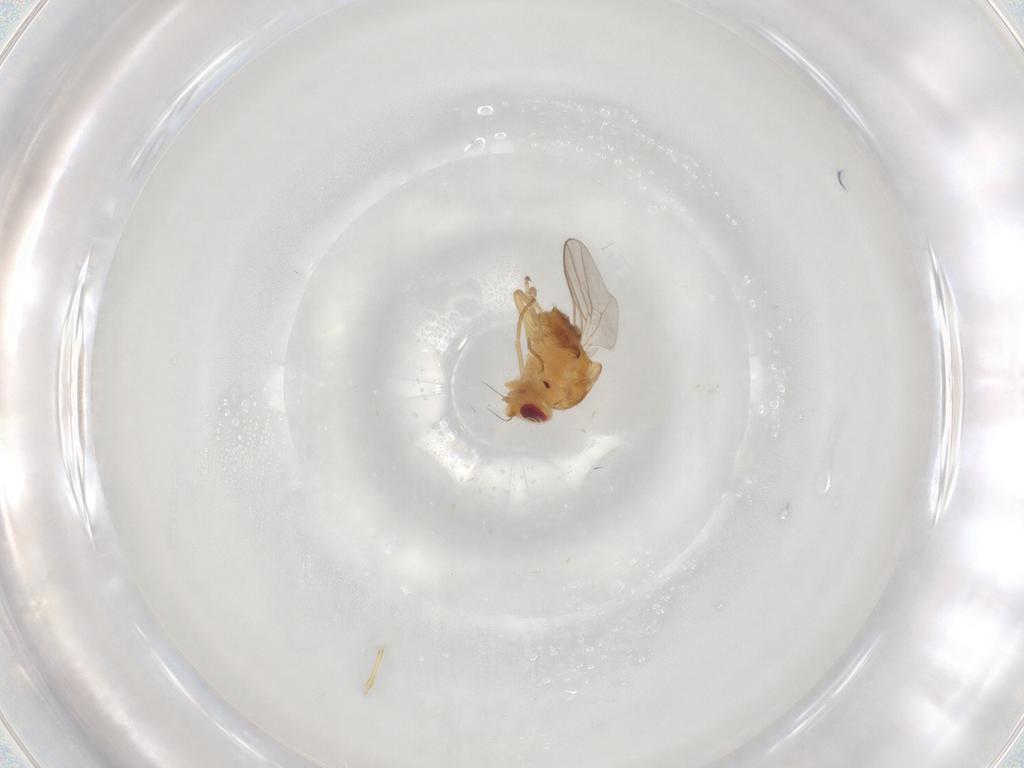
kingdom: Animalia
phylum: Arthropoda
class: Insecta
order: Diptera
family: Chloropidae
